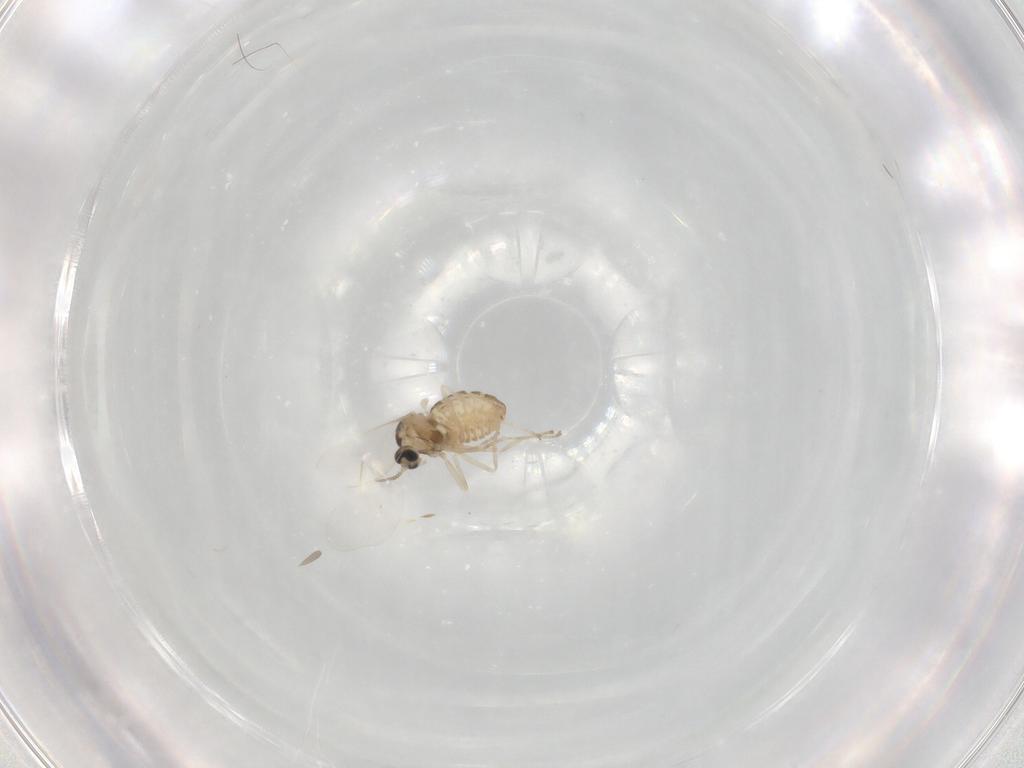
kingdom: Animalia
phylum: Arthropoda
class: Insecta
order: Diptera
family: Cecidomyiidae
